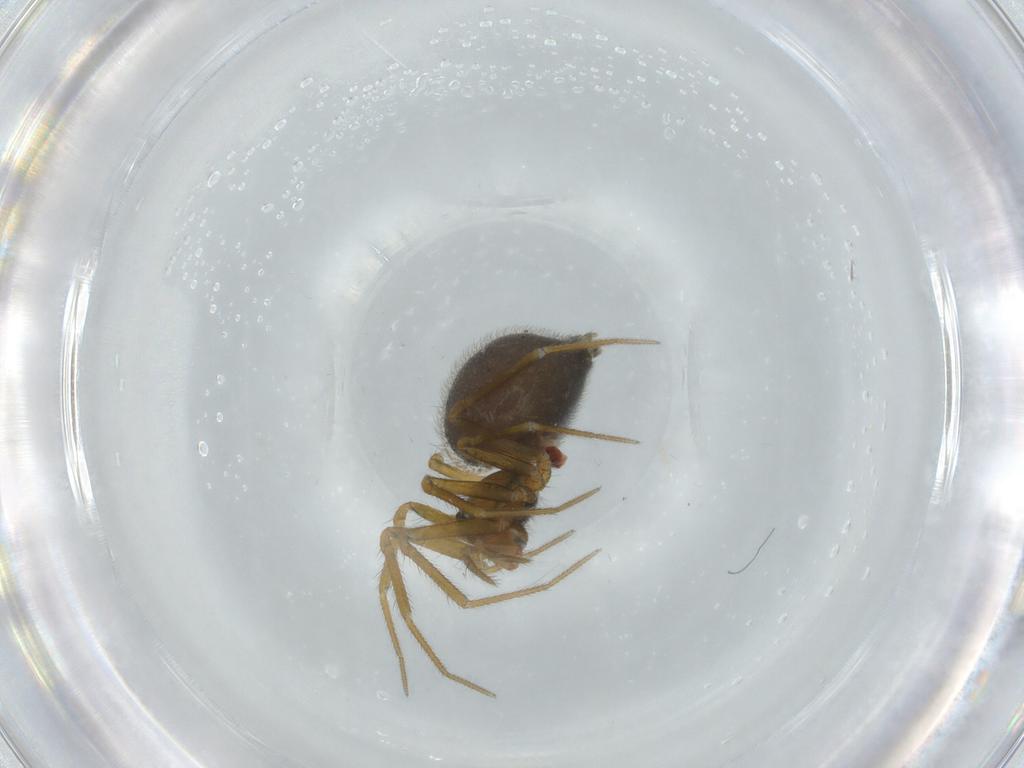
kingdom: Animalia
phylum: Arthropoda
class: Arachnida
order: Araneae
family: Linyphiidae
